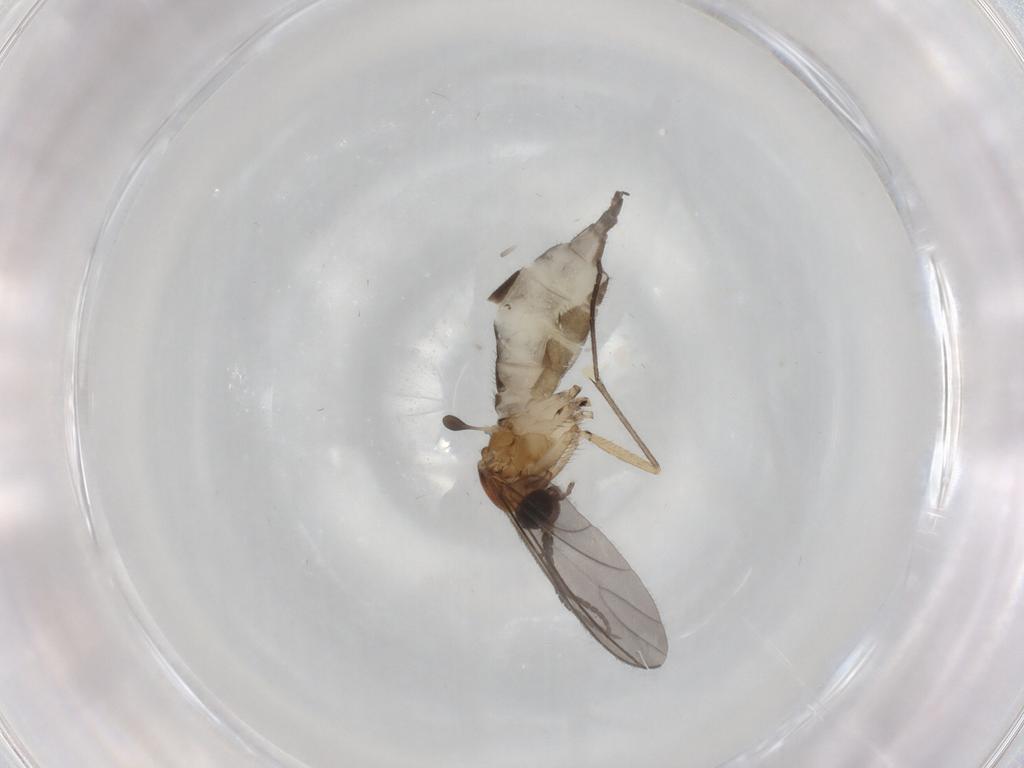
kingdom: Animalia
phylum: Arthropoda
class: Insecta
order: Diptera
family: Sciaridae
